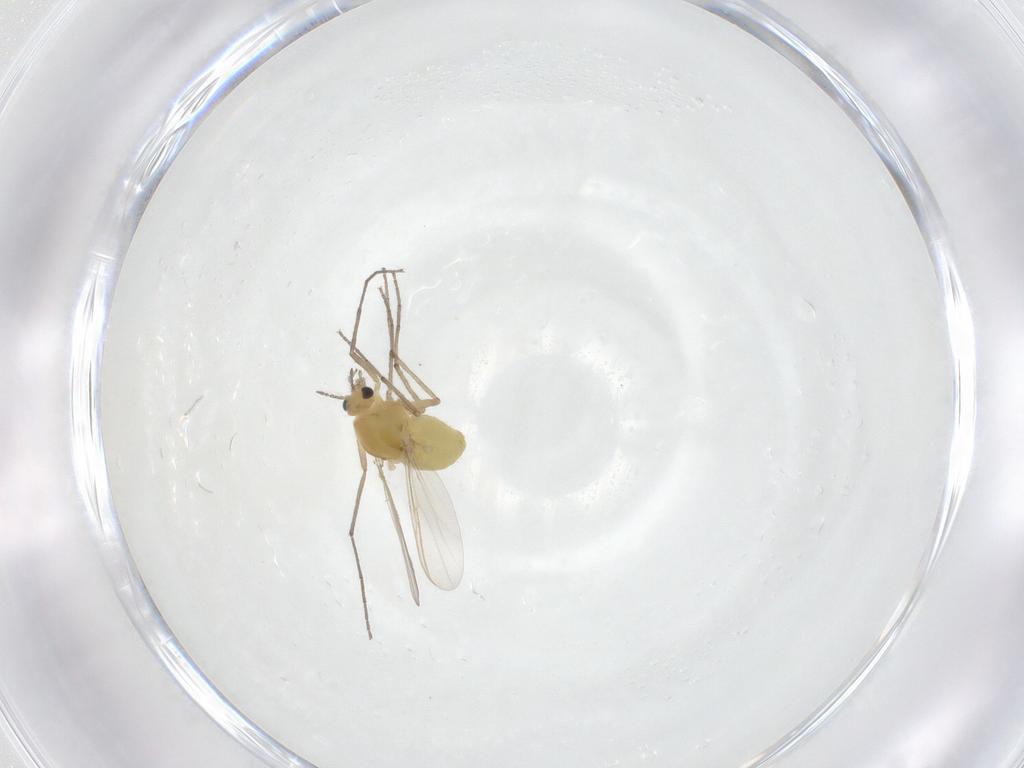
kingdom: Animalia
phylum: Arthropoda
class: Insecta
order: Diptera
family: Chironomidae
